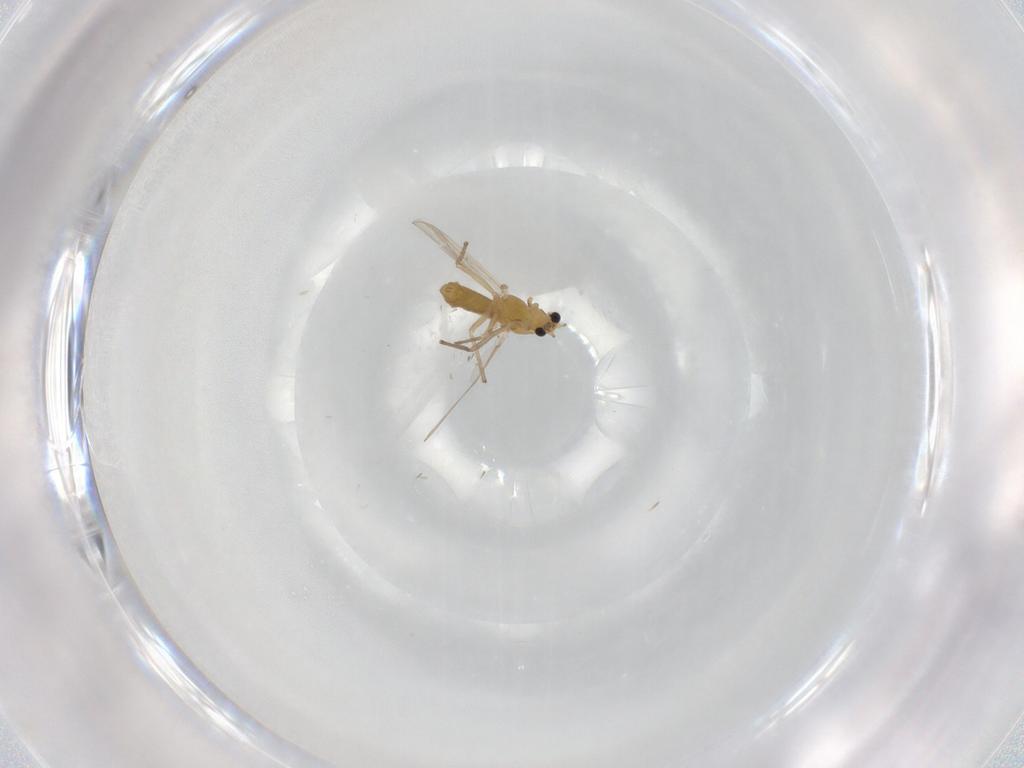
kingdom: Animalia
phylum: Arthropoda
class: Insecta
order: Diptera
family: Chironomidae
